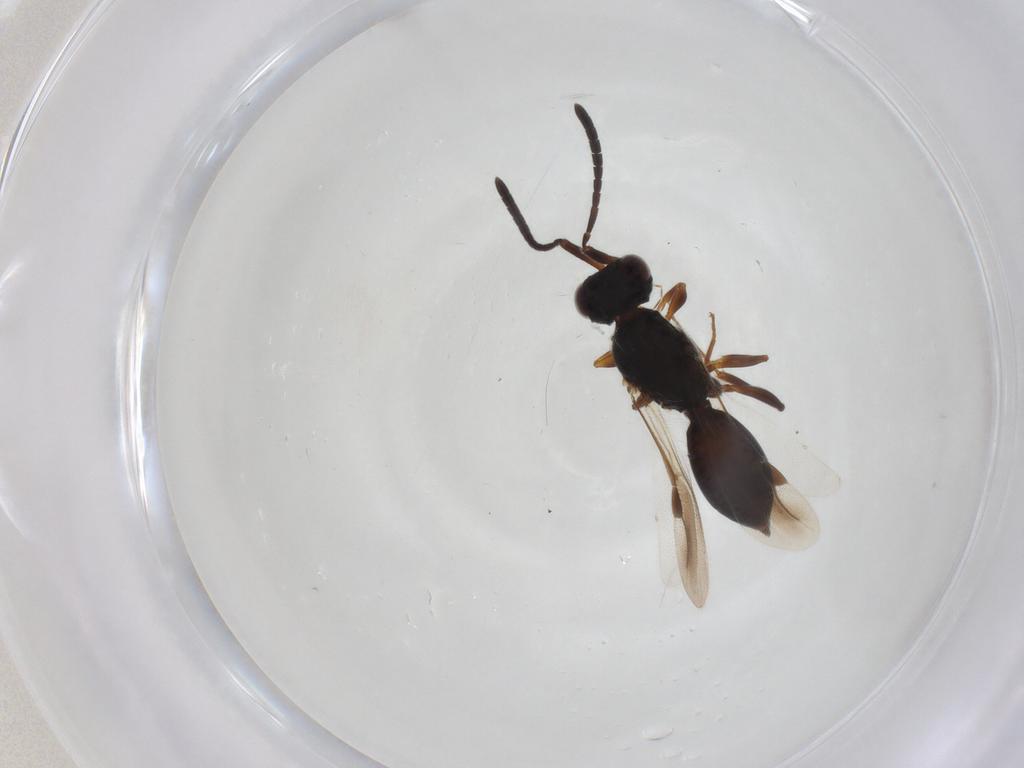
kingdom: Animalia
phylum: Arthropoda
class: Insecta
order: Hymenoptera
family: Megaspilidae
